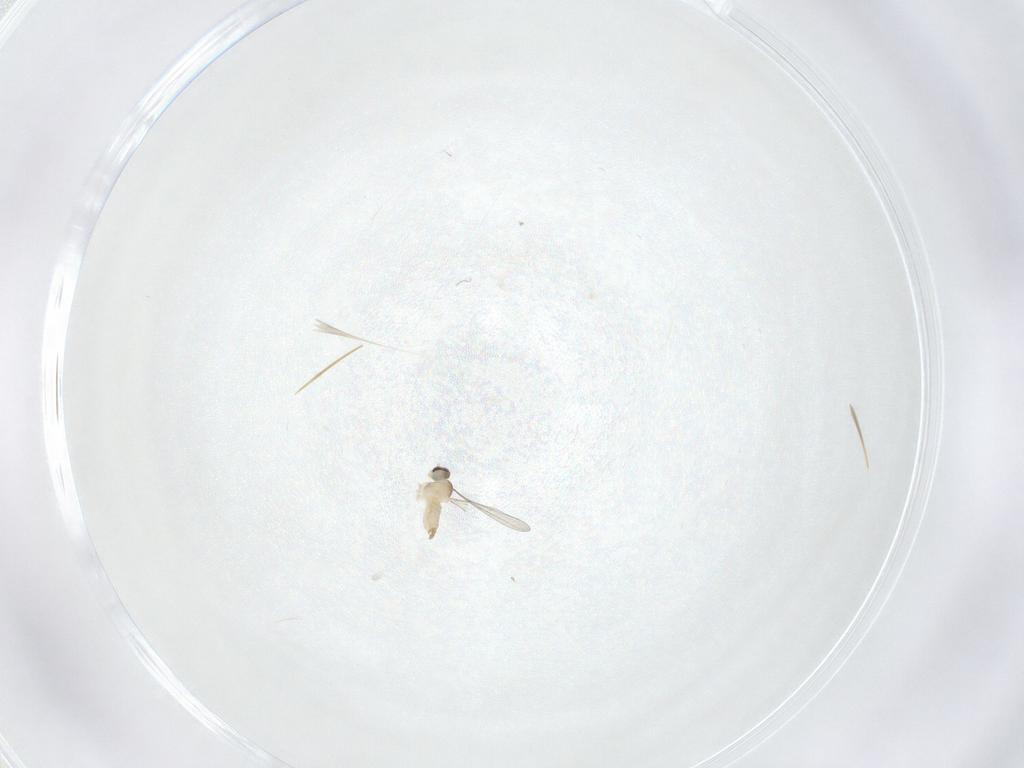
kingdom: Animalia
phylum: Arthropoda
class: Insecta
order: Diptera
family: Cecidomyiidae
